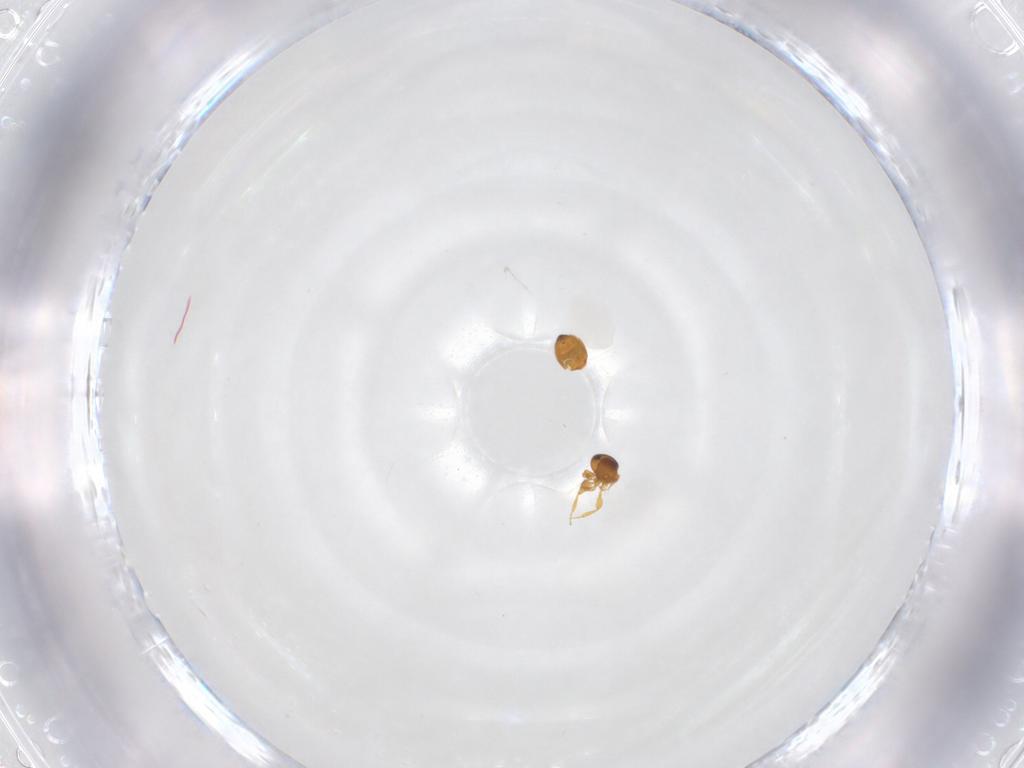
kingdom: Animalia
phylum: Arthropoda
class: Insecta
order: Hymenoptera
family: Platygastridae
